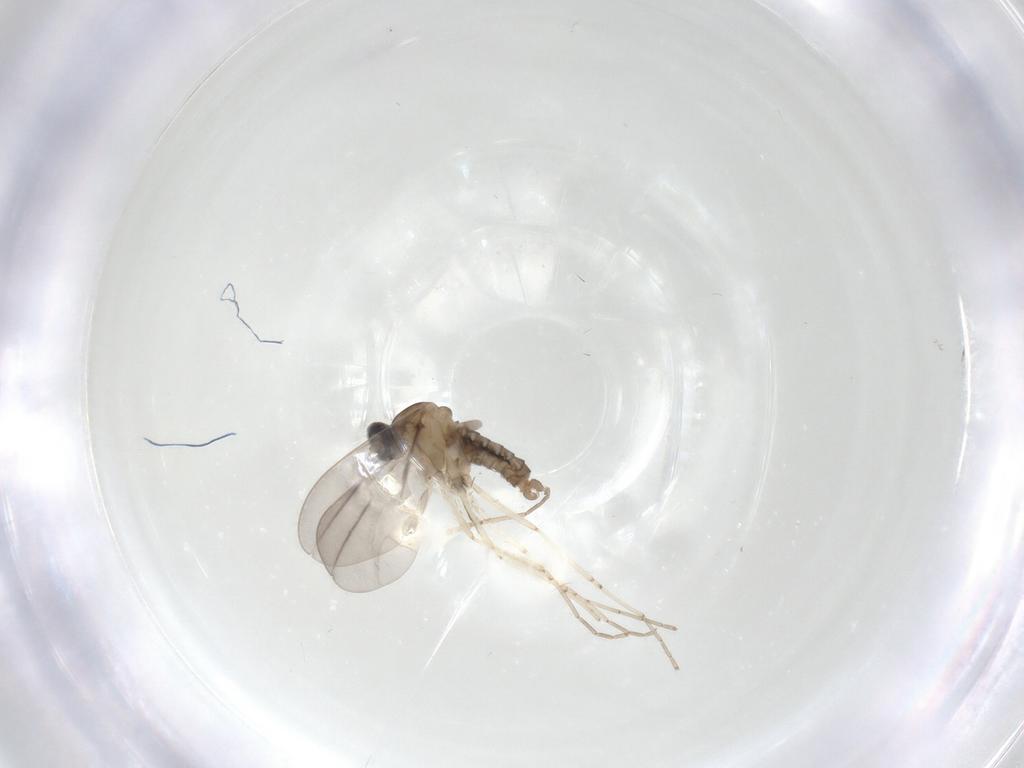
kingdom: Animalia
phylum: Arthropoda
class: Insecta
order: Diptera
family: Cecidomyiidae
